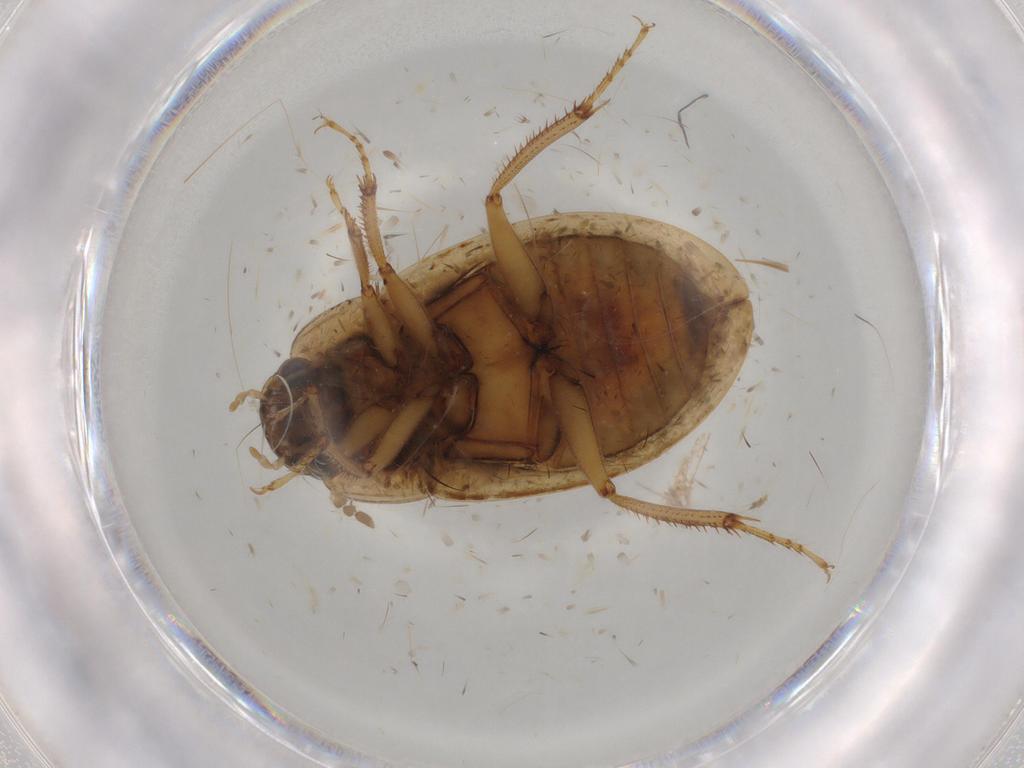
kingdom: Animalia
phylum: Arthropoda
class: Insecta
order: Coleoptera
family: Hydrophilidae
